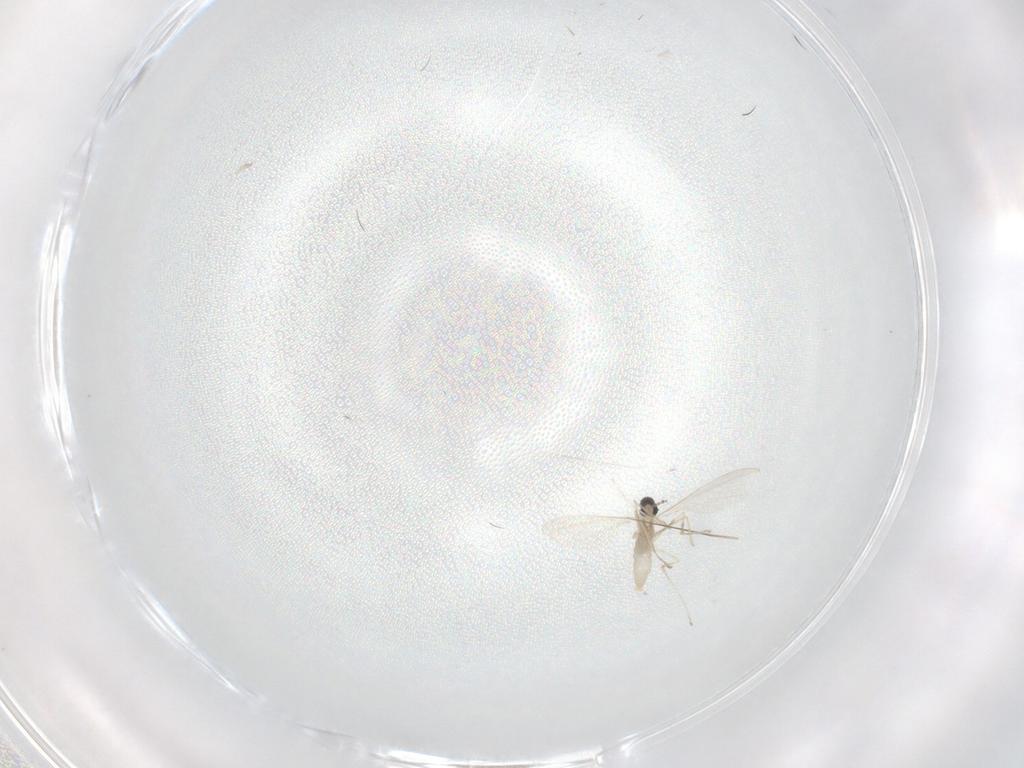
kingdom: Animalia
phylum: Arthropoda
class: Insecta
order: Diptera
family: Cecidomyiidae
